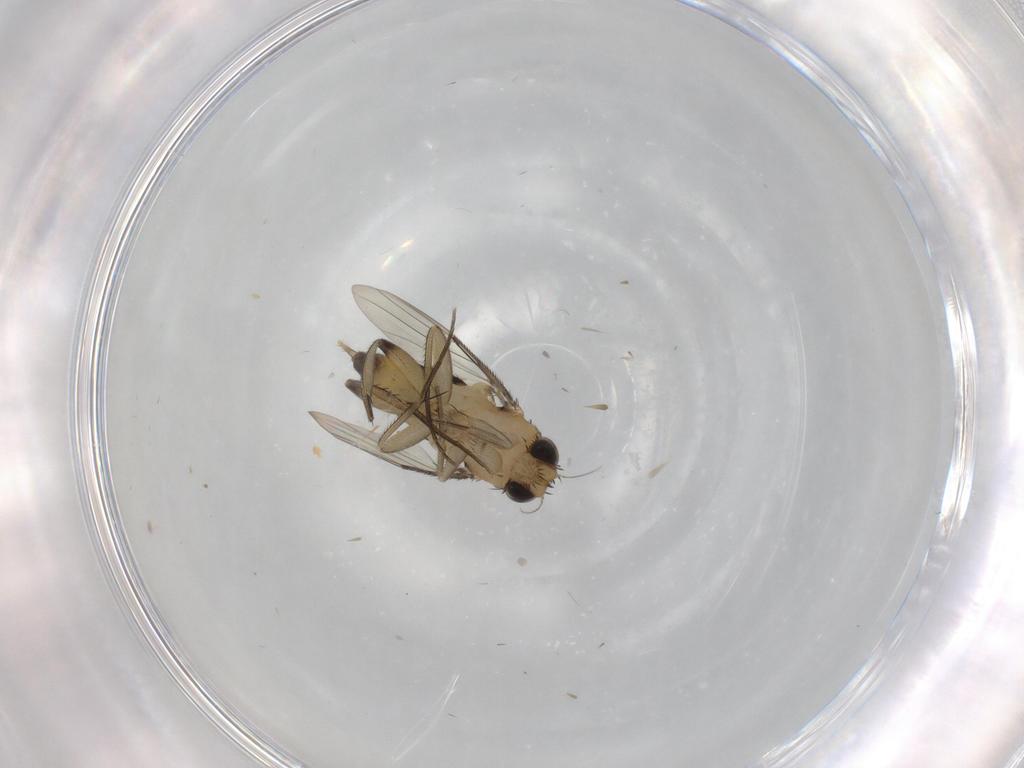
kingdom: Animalia
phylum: Arthropoda
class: Insecta
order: Diptera
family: Phoridae
